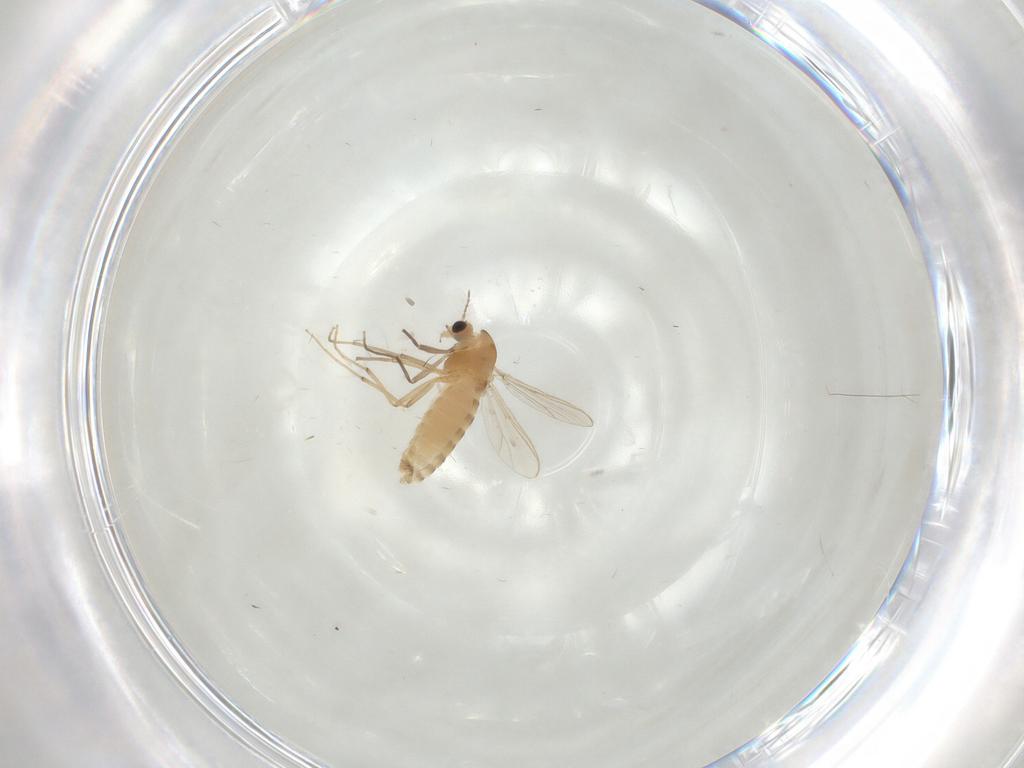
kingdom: Animalia
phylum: Arthropoda
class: Insecta
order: Diptera
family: Chironomidae
